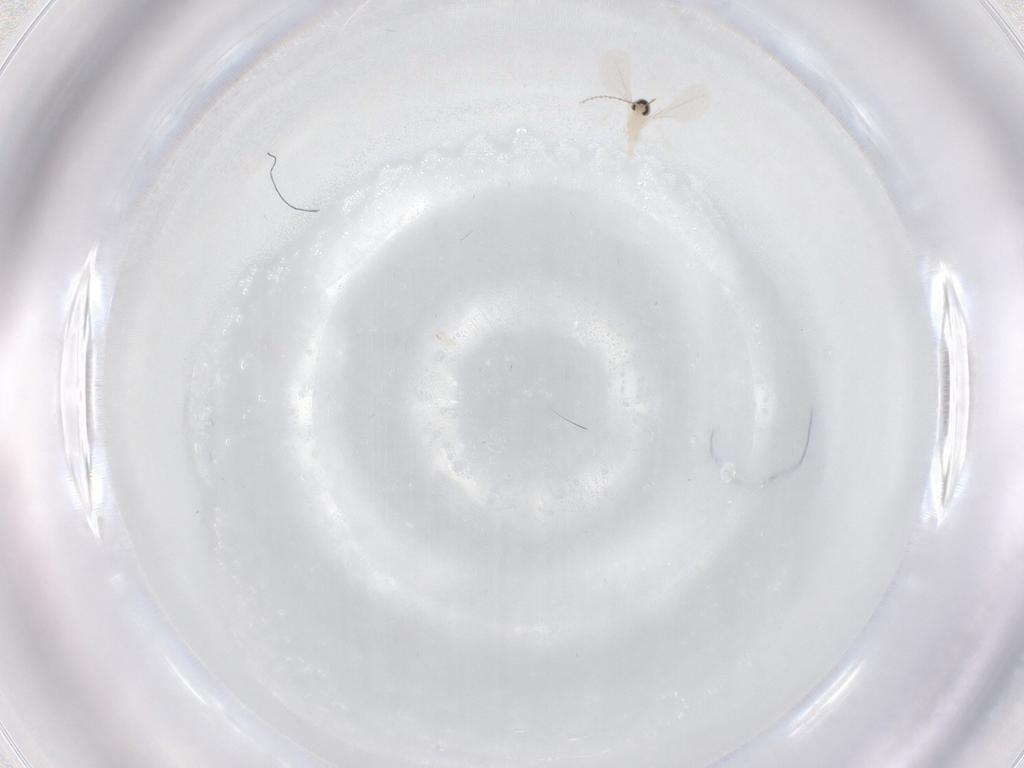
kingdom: Animalia
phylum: Arthropoda
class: Insecta
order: Diptera
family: Cecidomyiidae
